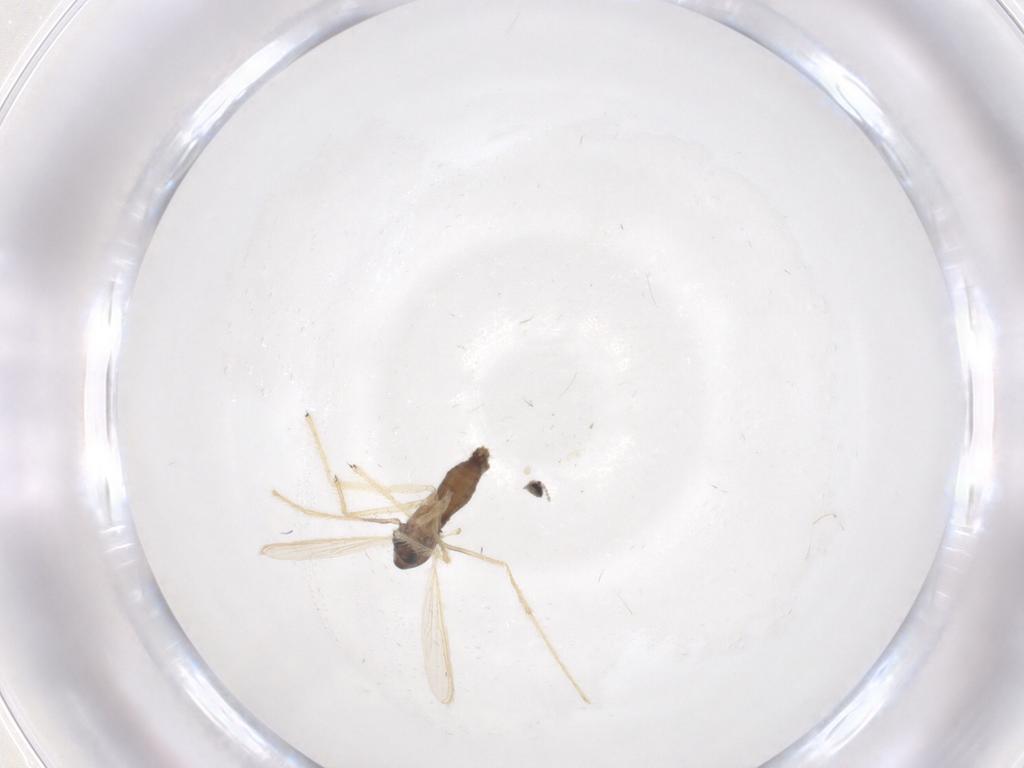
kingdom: Animalia
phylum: Arthropoda
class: Insecta
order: Diptera
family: Chironomidae
